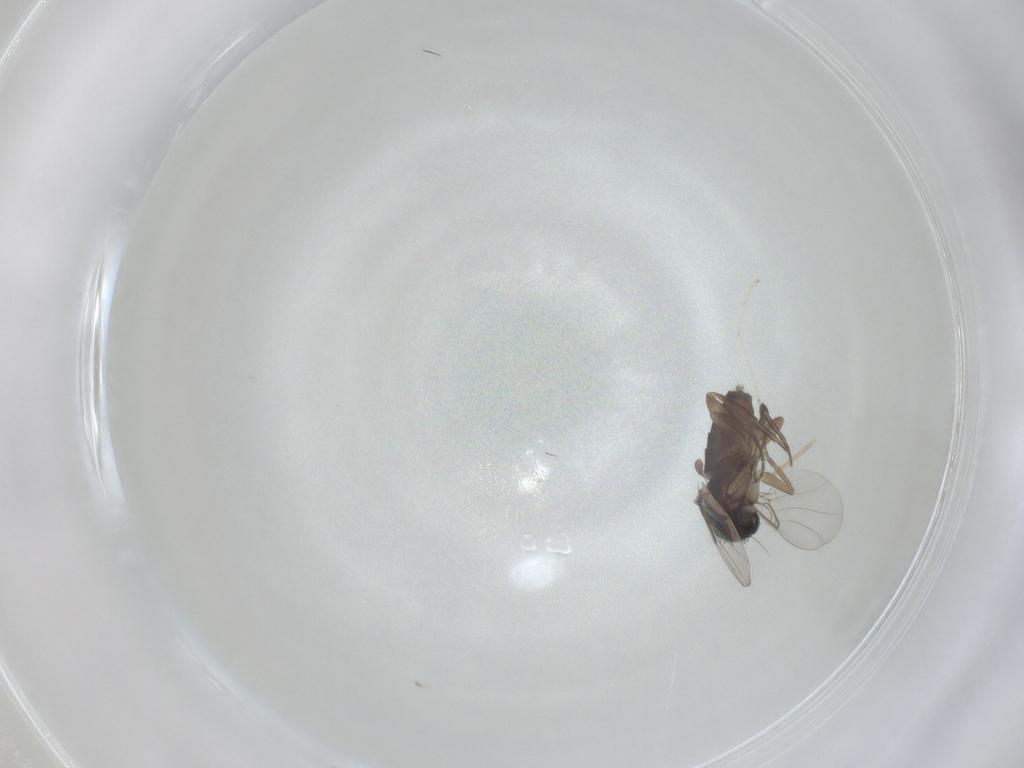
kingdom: Animalia
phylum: Arthropoda
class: Insecta
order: Diptera
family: Phoridae
